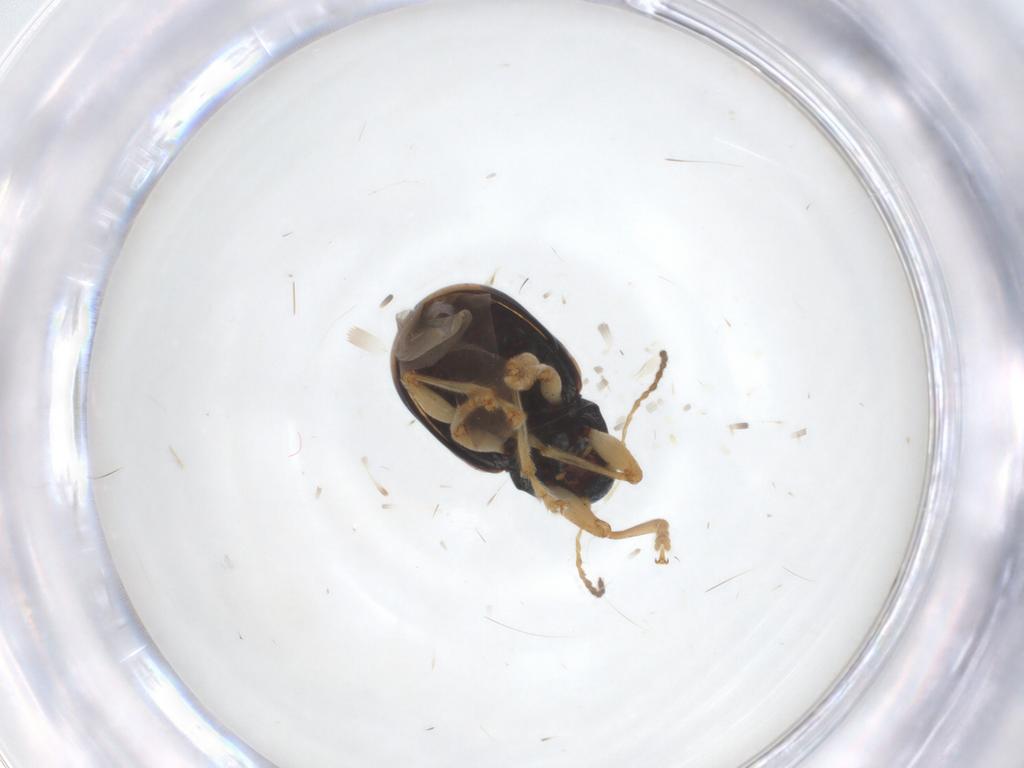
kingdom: Animalia
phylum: Arthropoda
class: Insecta
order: Coleoptera
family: Chrysomelidae
